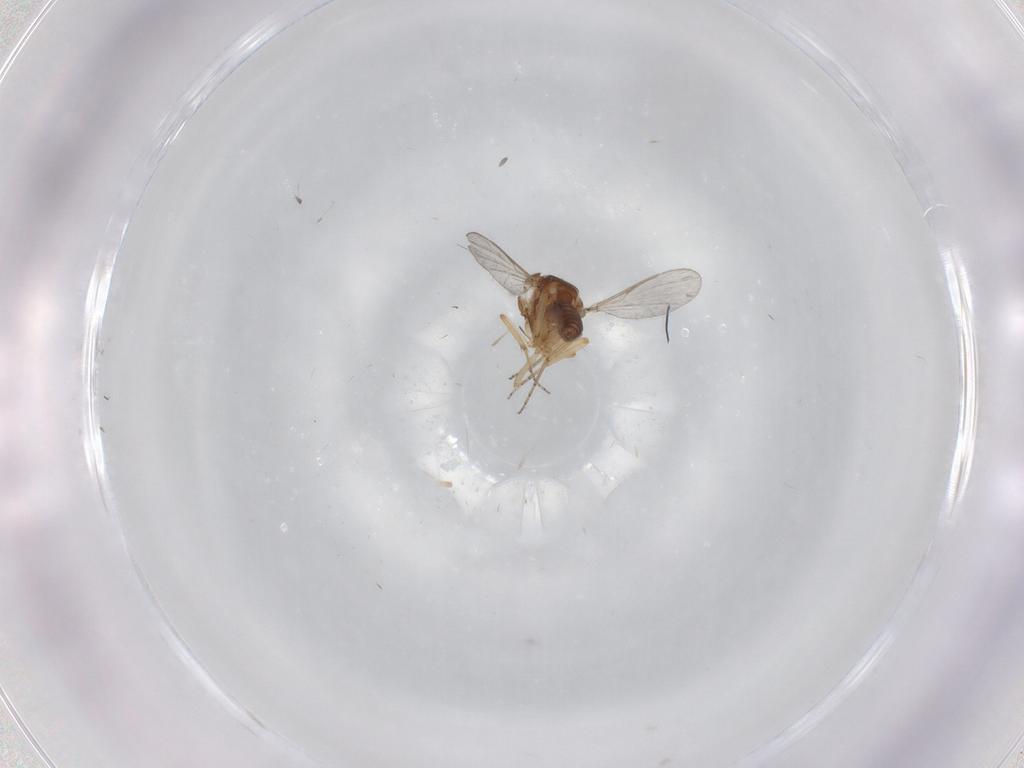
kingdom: Animalia
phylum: Arthropoda
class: Insecta
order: Diptera
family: Phoridae
